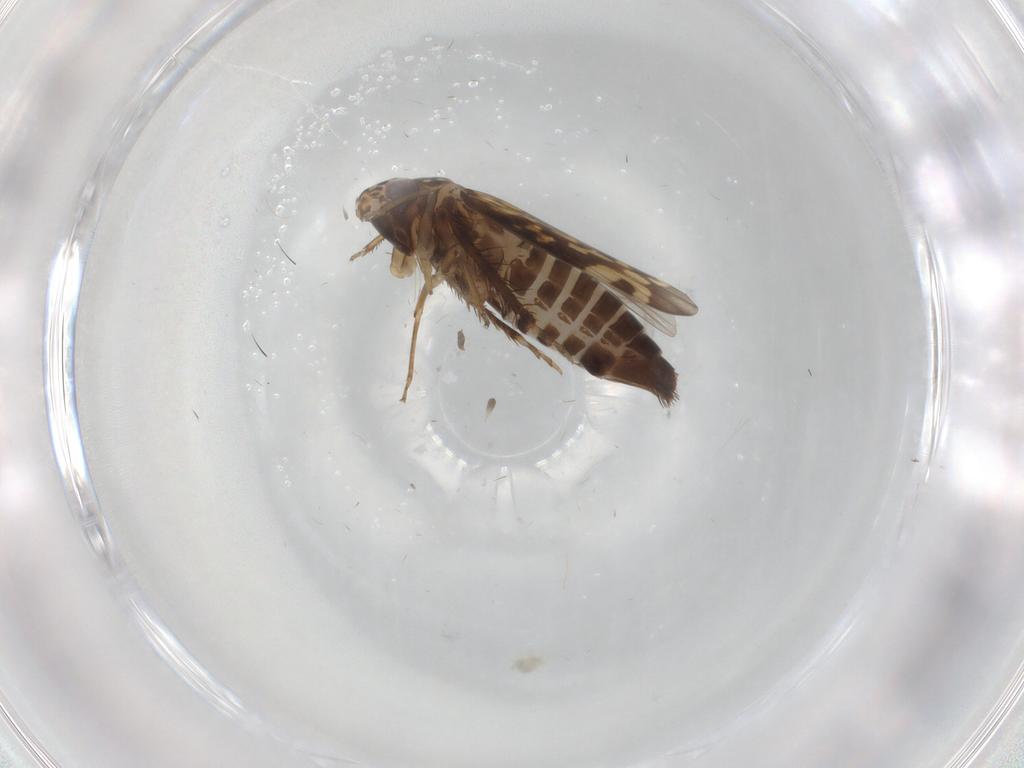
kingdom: Animalia
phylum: Arthropoda
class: Insecta
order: Hemiptera
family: Cicadellidae
